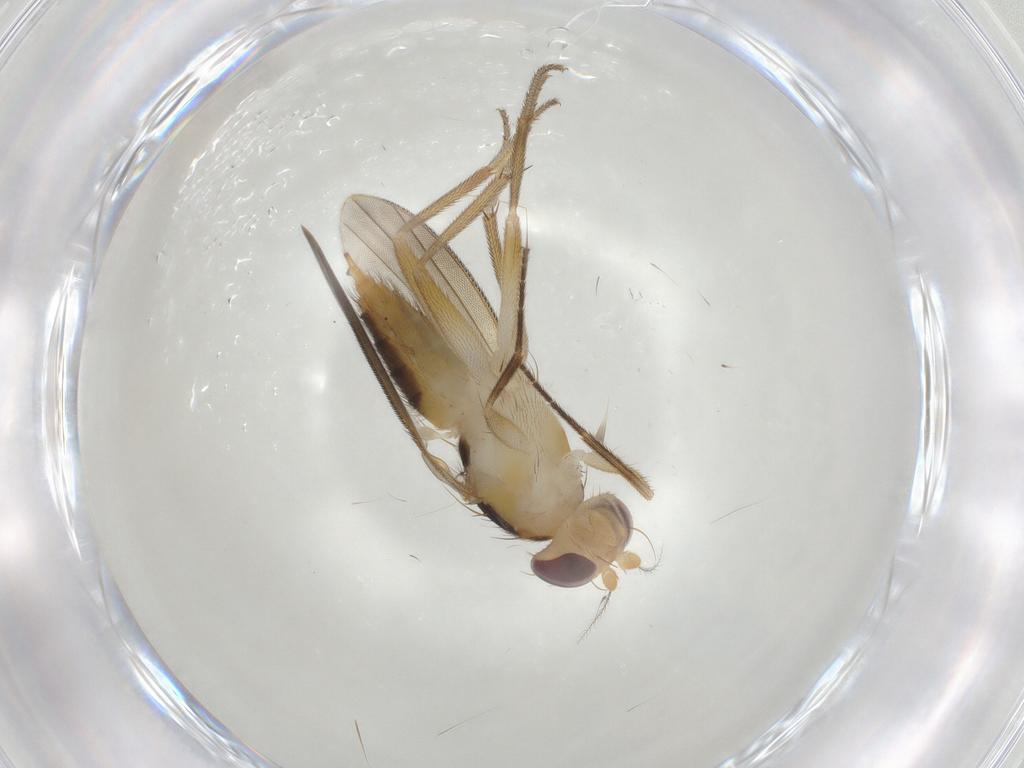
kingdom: Animalia
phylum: Arthropoda
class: Insecta
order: Diptera
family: Agromyzidae
